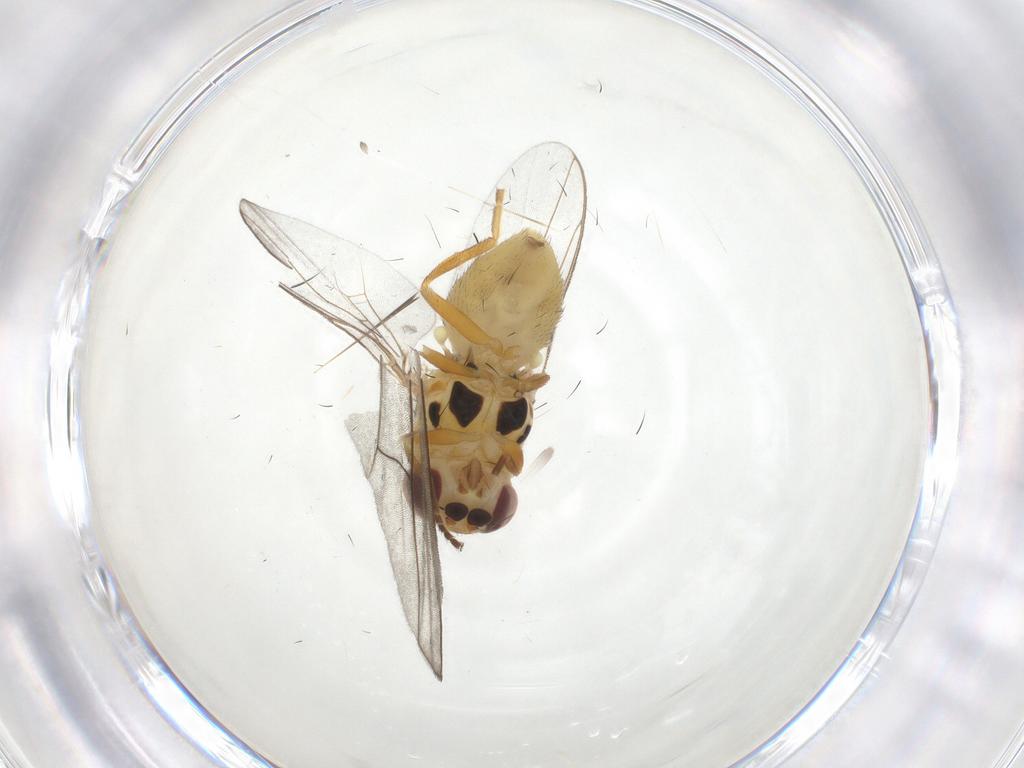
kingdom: Animalia
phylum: Arthropoda
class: Insecta
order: Diptera
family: Chloropidae
